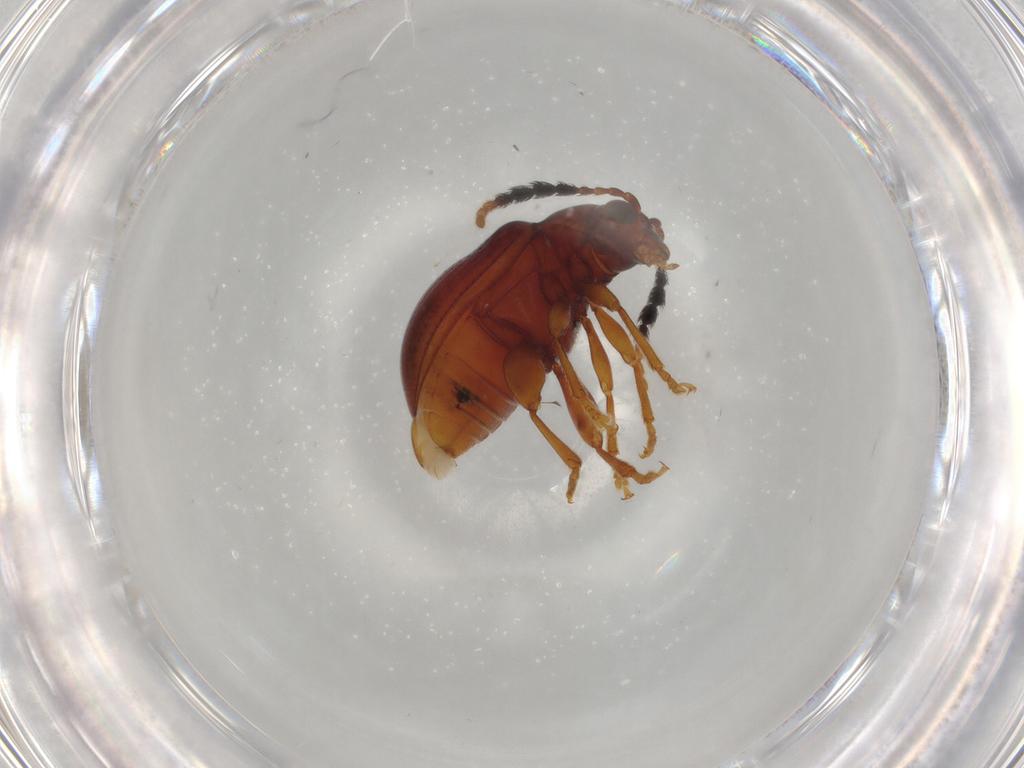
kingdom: Animalia
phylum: Arthropoda
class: Insecta
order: Coleoptera
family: Chrysomelidae
